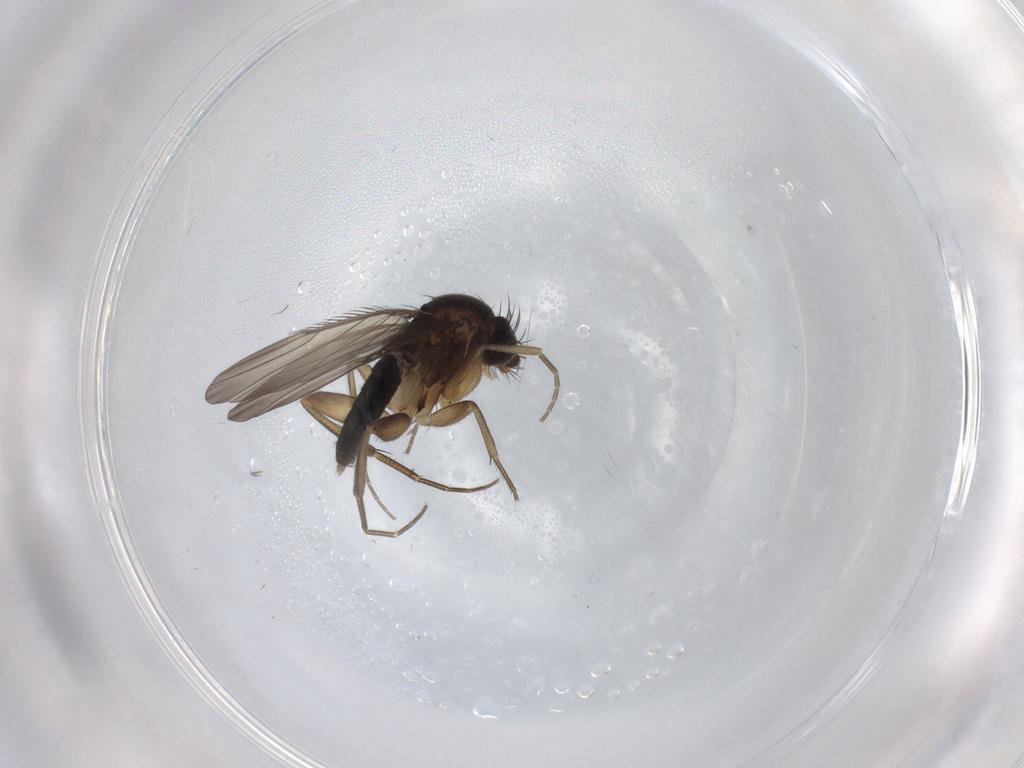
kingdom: Animalia
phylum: Arthropoda
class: Insecta
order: Diptera
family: Phoridae
